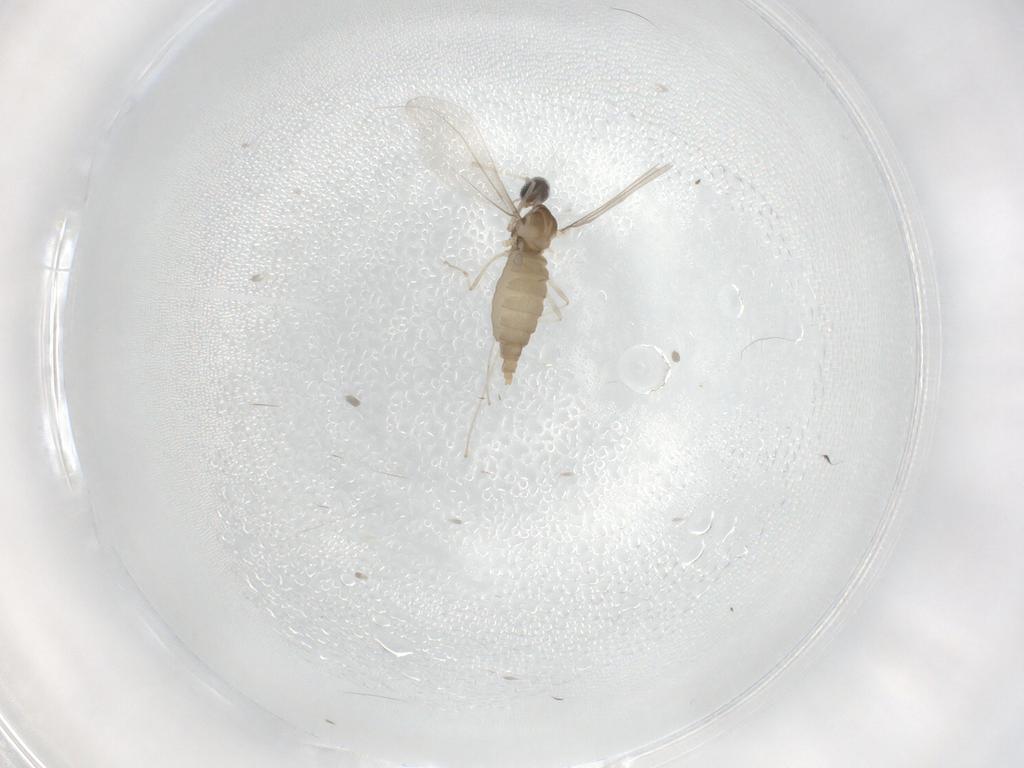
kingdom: Animalia
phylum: Arthropoda
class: Insecta
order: Diptera
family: Cecidomyiidae
